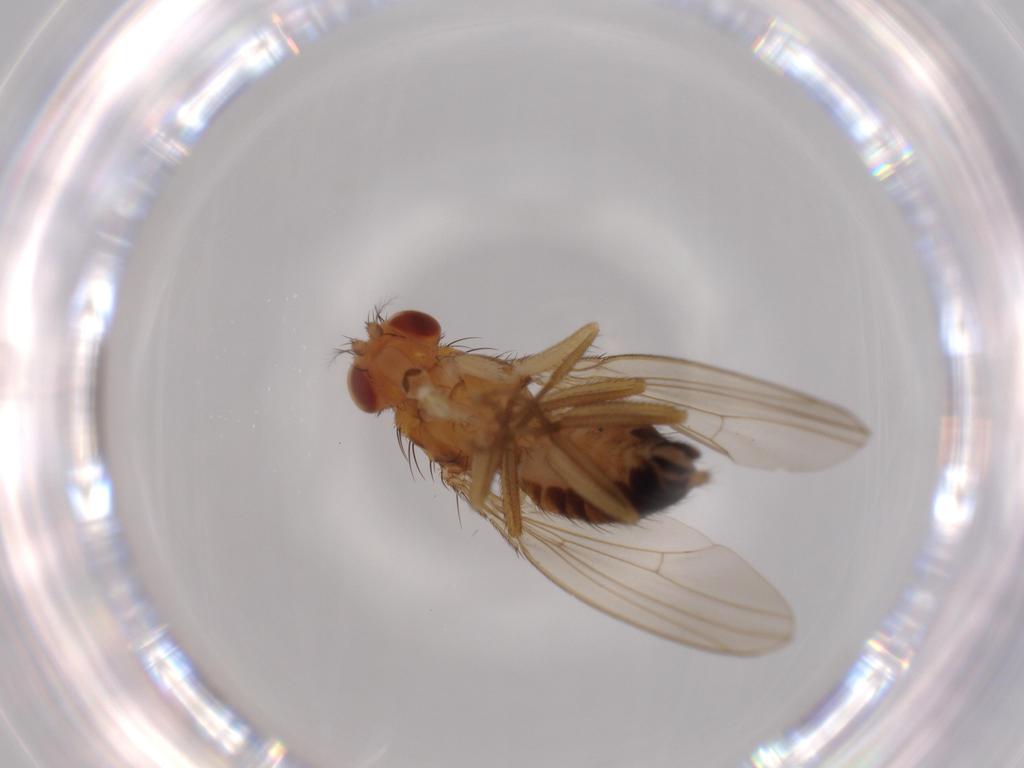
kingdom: Animalia
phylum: Arthropoda
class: Insecta
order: Diptera
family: Drosophilidae
